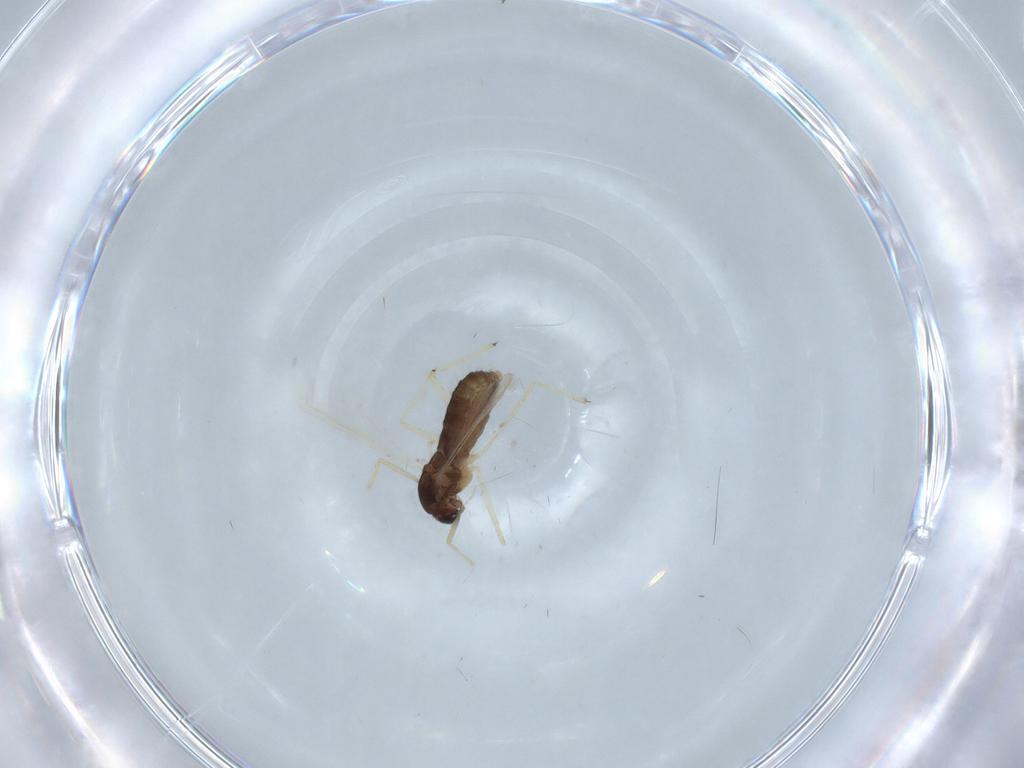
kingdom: Animalia
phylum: Arthropoda
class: Insecta
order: Diptera
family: Chironomidae
